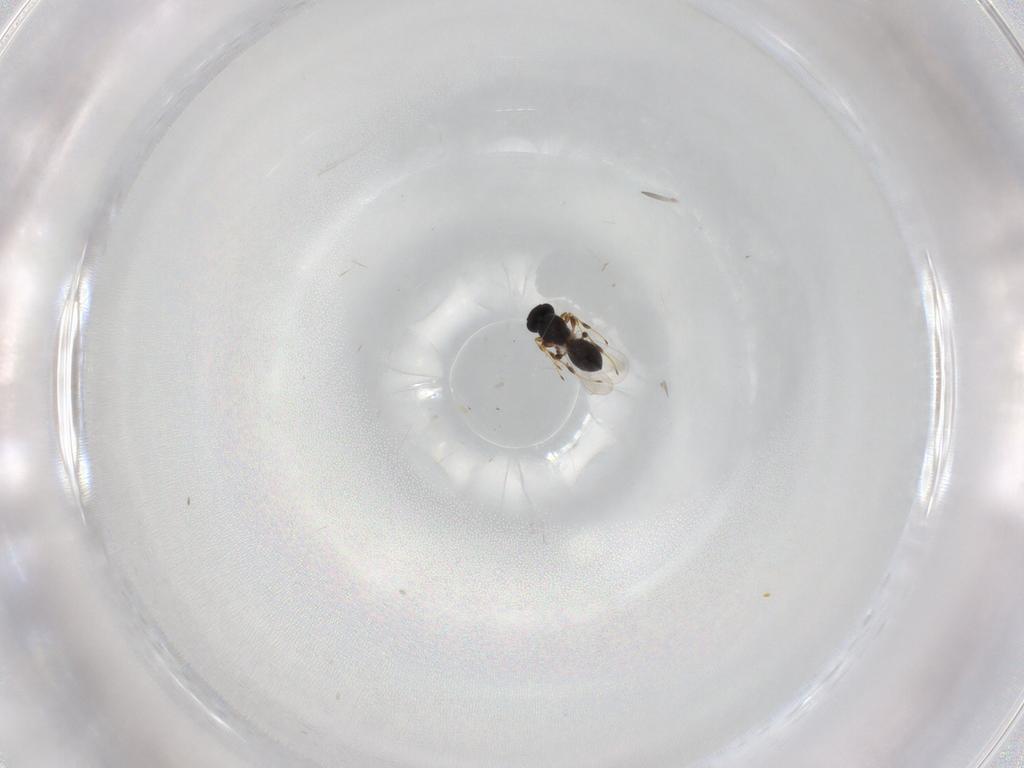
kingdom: Animalia
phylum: Arthropoda
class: Insecta
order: Hymenoptera
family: Platygastridae
